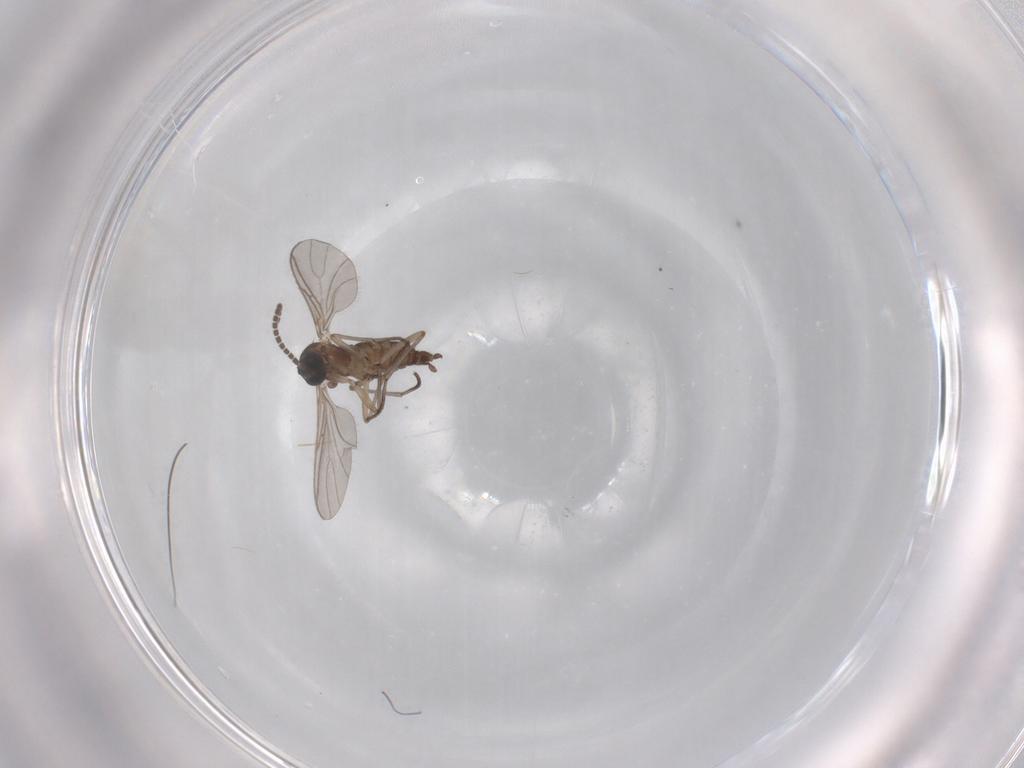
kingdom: Animalia
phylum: Arthropoda
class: Insecta
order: Diptera
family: Sciaridae
